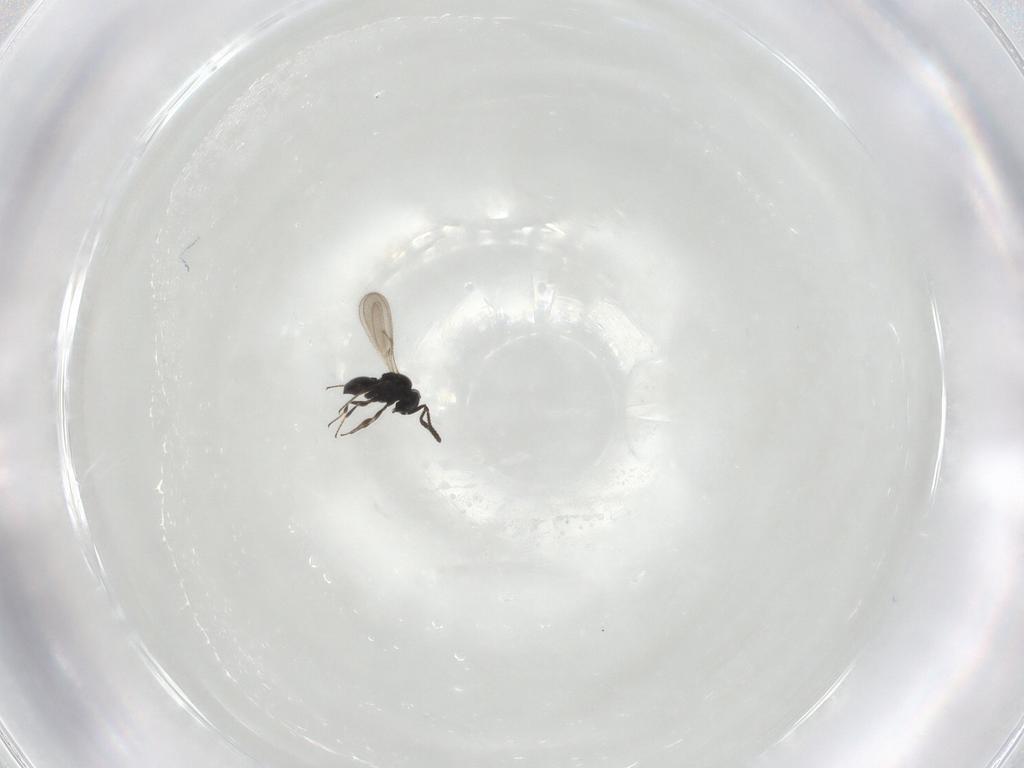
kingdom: Animalia
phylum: Arthropoda
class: Insecta
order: Hymenoptera
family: Scelionidae
